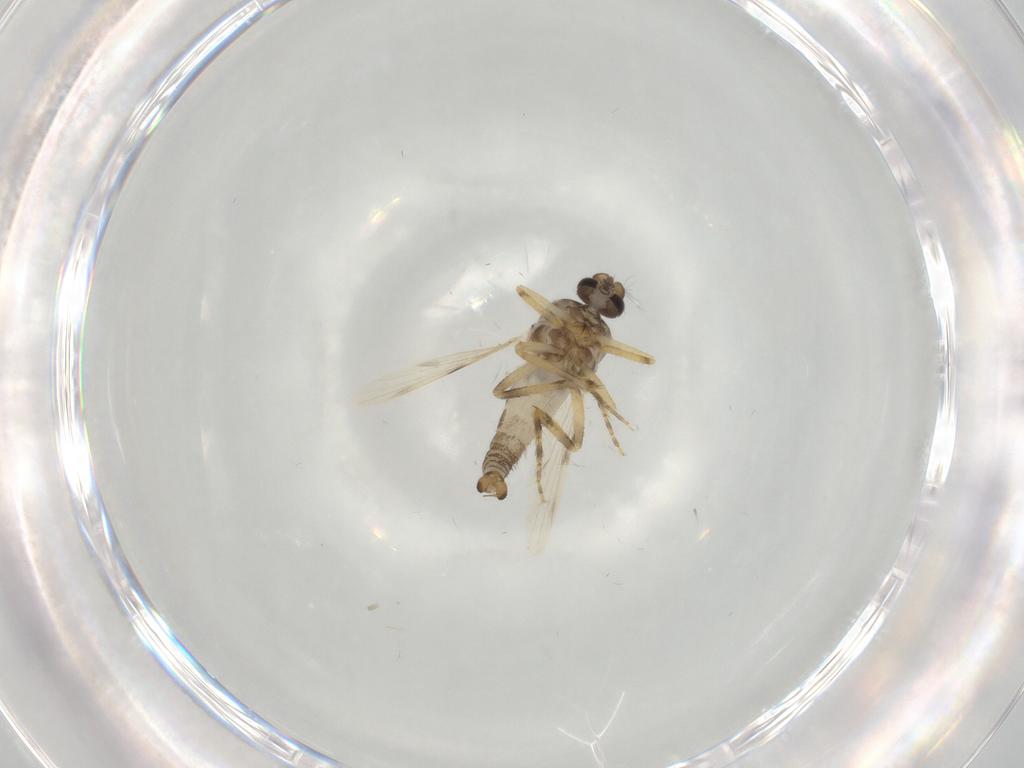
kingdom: Animalia
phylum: Arthropoda
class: Insecta
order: Diptera
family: Ceratopogonidae
